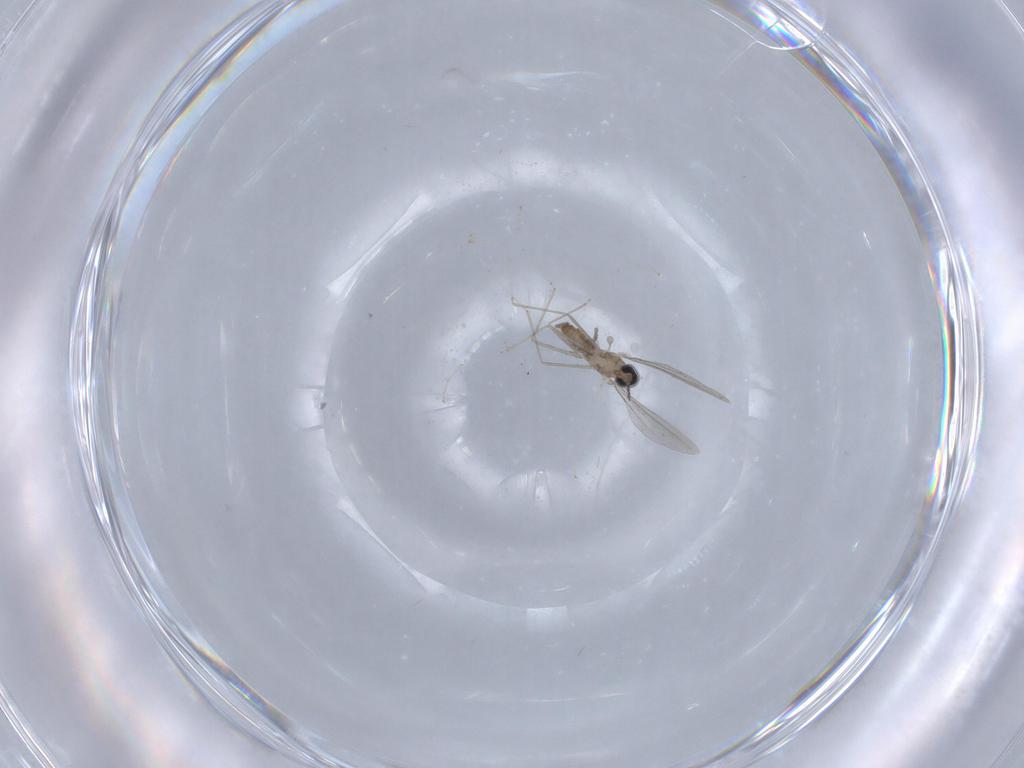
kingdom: Animalia
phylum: Arthropoda
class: Insecta
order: Diptera
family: Cecidomyiidae
